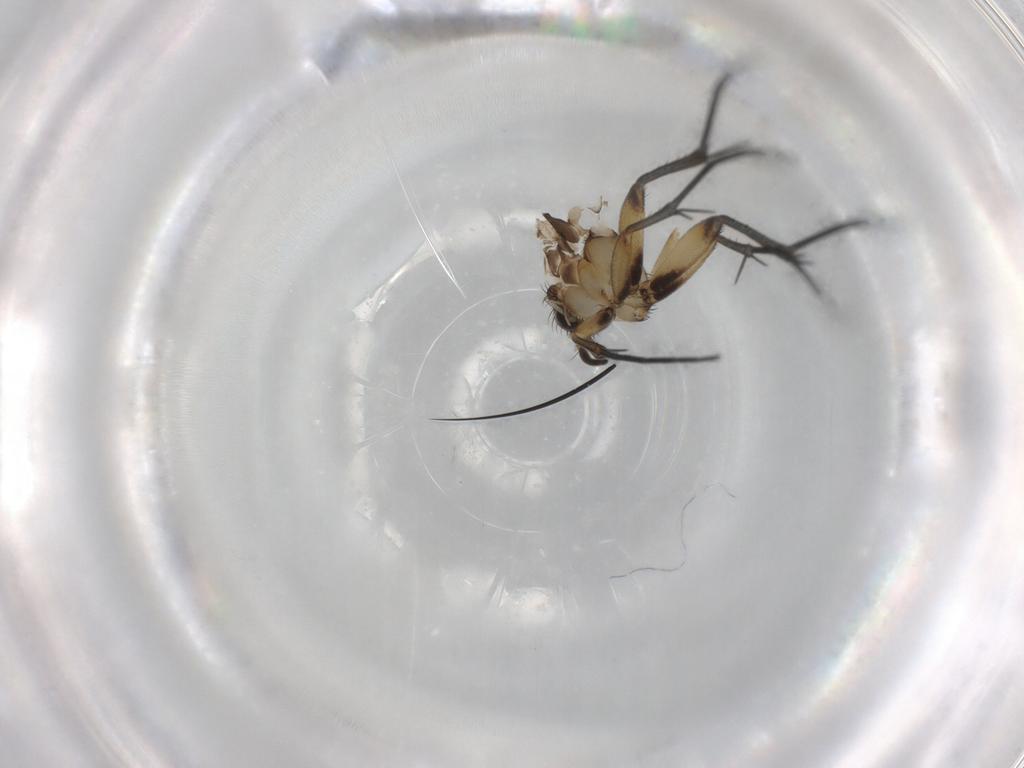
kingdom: Animalia
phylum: Arthropoda
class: Insecta
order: Diptera
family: Mycetophilidae
